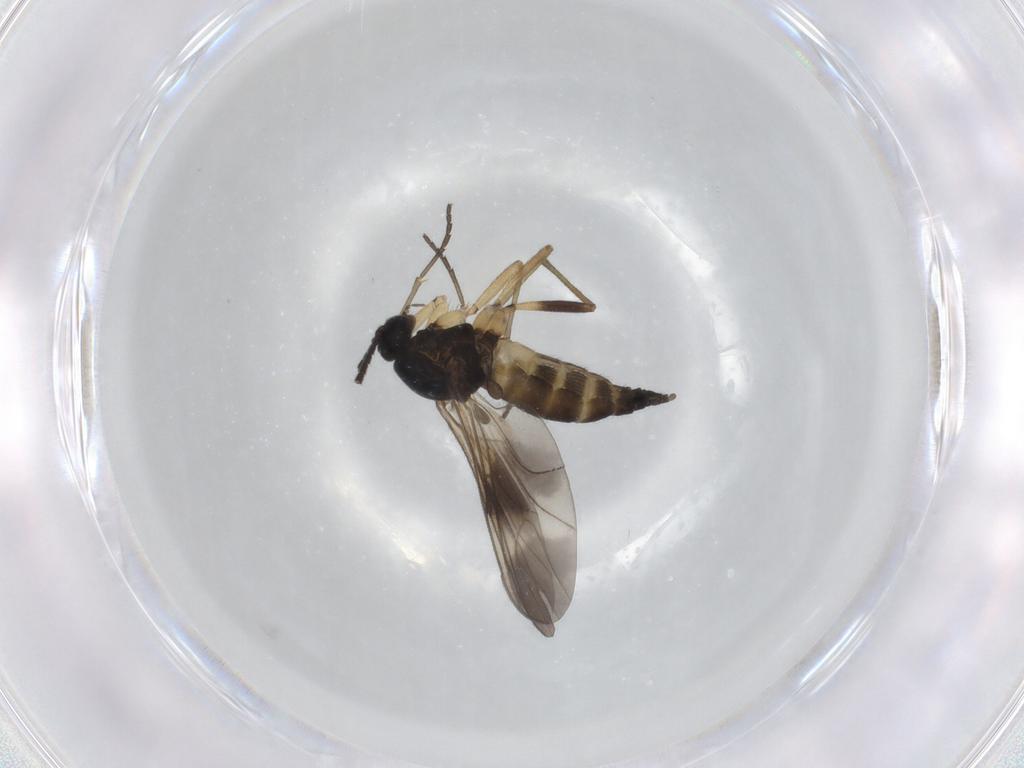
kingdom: Animalia
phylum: Arthropoda
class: Insecta
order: Diptera
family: Sciaridae
